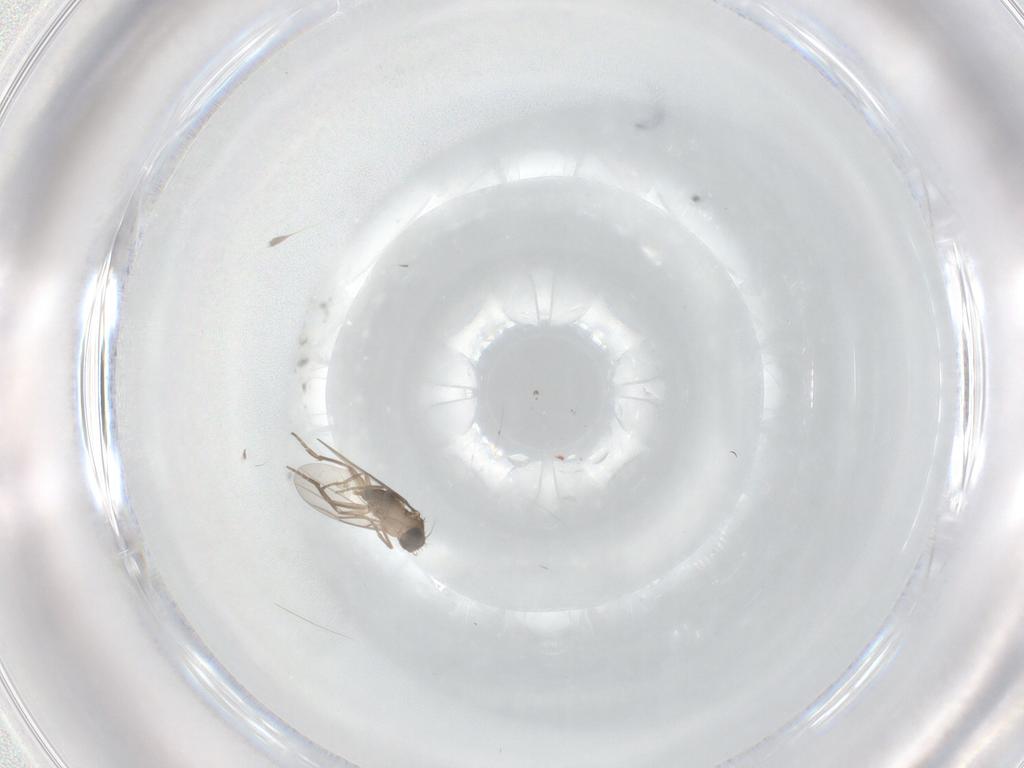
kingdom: Animalia
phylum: Arthropoda
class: Insecta
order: Diptera
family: Phoridae
